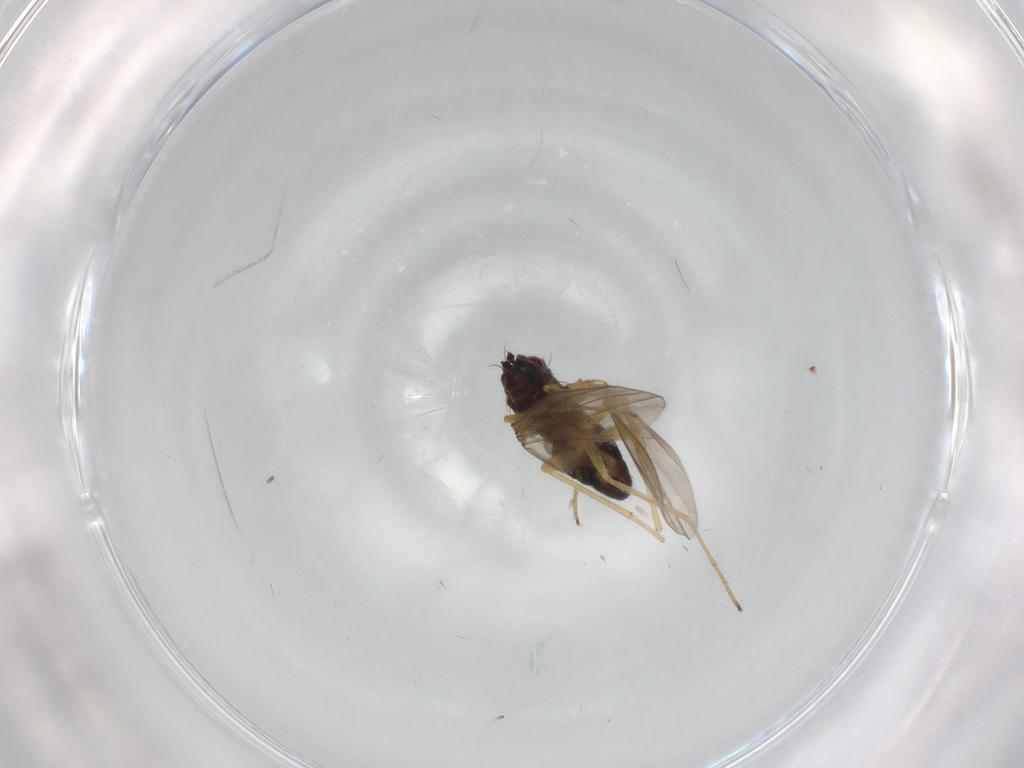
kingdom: Animalia
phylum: Arthropoda
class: Insecta
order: Diptera
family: Dolichopodidae
